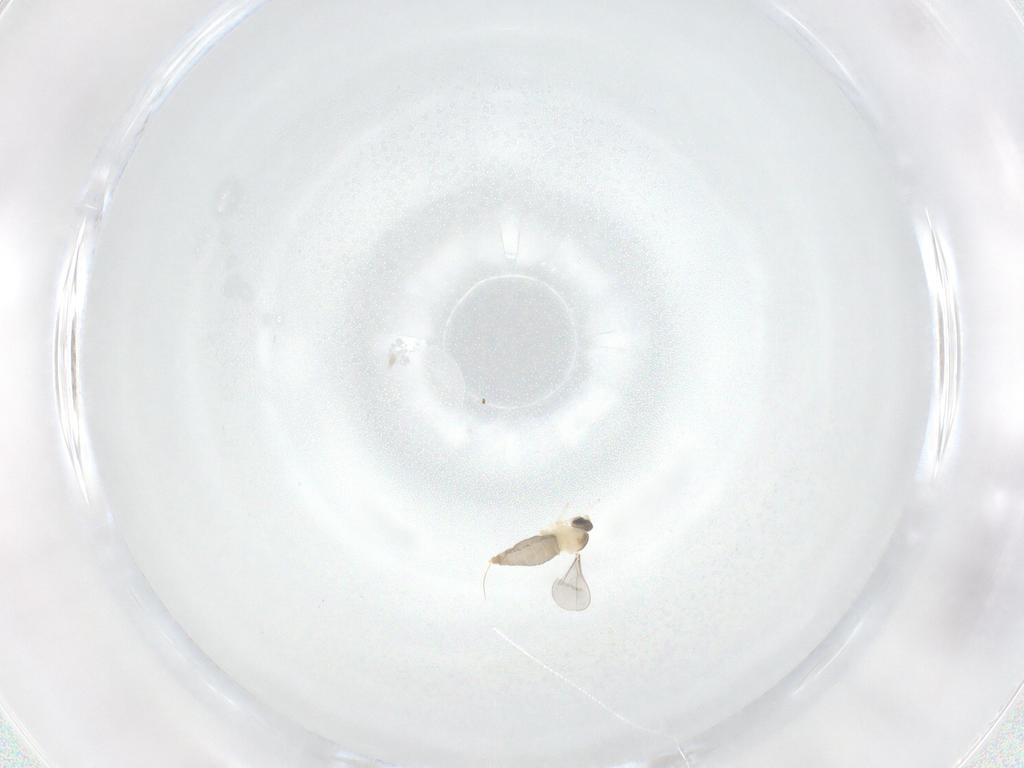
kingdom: Animalia
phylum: Arthropoda
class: Insecta
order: Diptera
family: Cecidomyiidae
